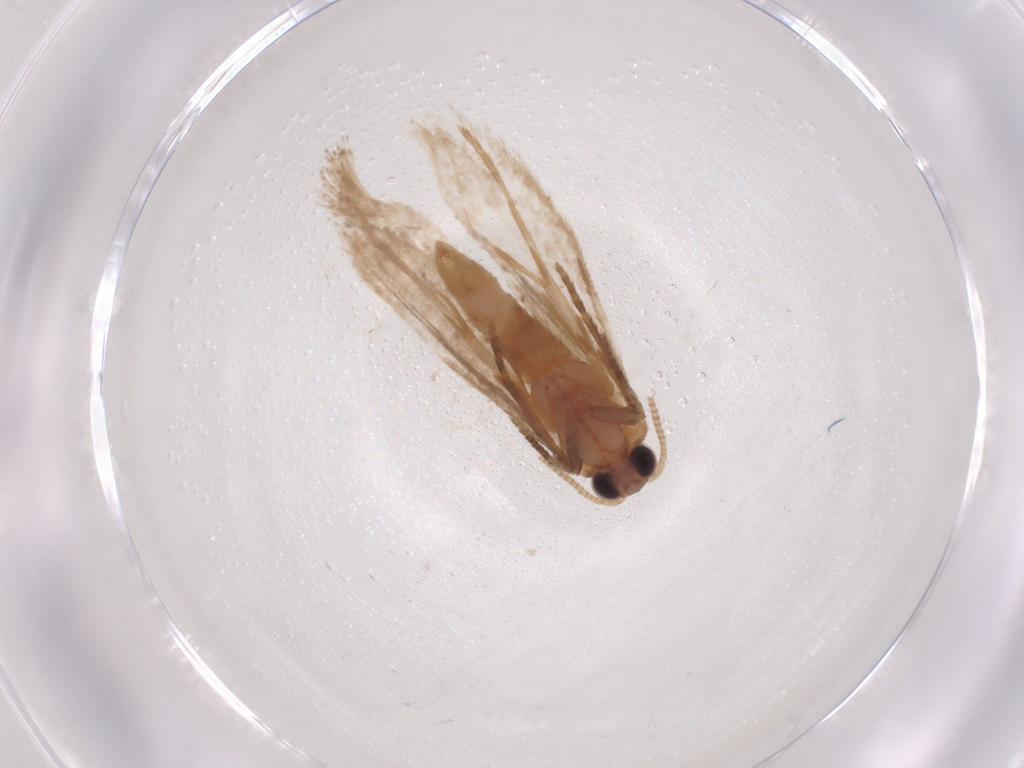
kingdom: Animalia
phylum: Arthropoda
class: Insecta
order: Lepidoptera
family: Nepticulidae
